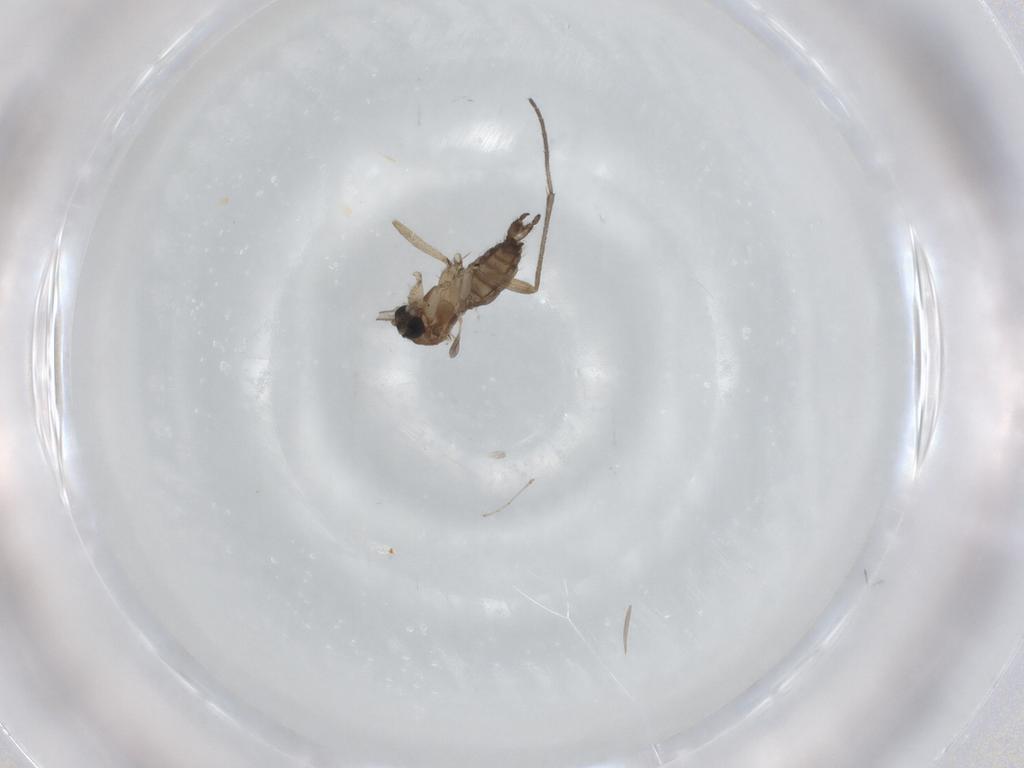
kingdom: Animalia
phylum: Arthropoda
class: Insecta
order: Diptera
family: Sciaridae
